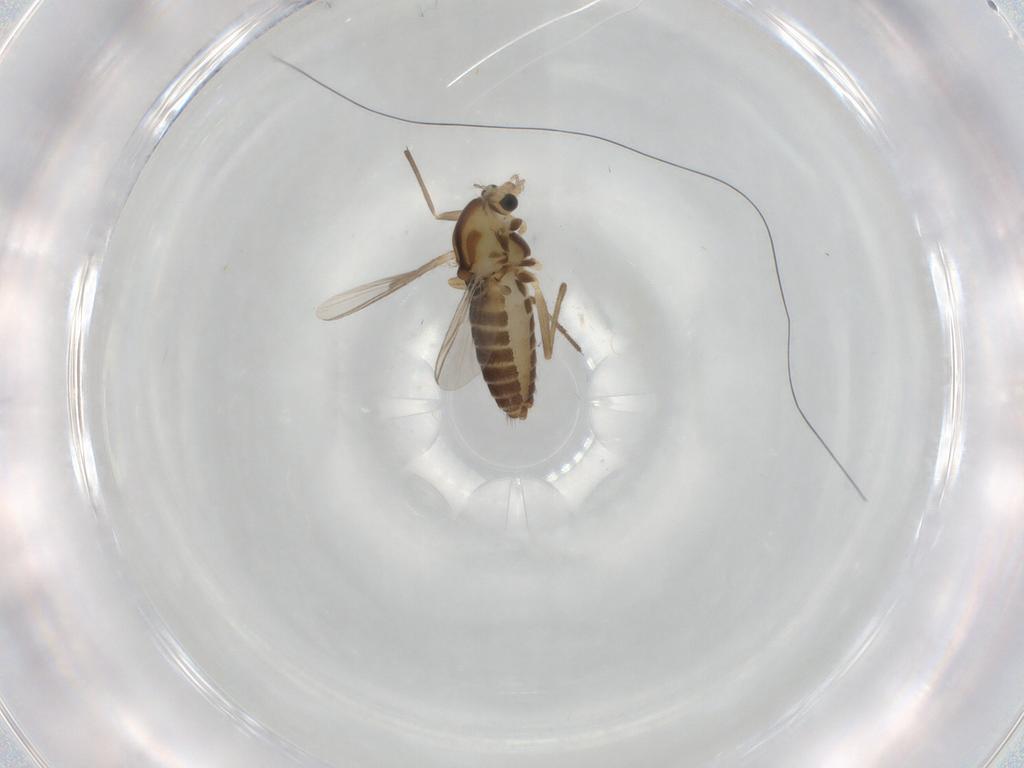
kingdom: Animalia
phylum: Arthropoda
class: Insecta
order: Diptera
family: Chironomidae
